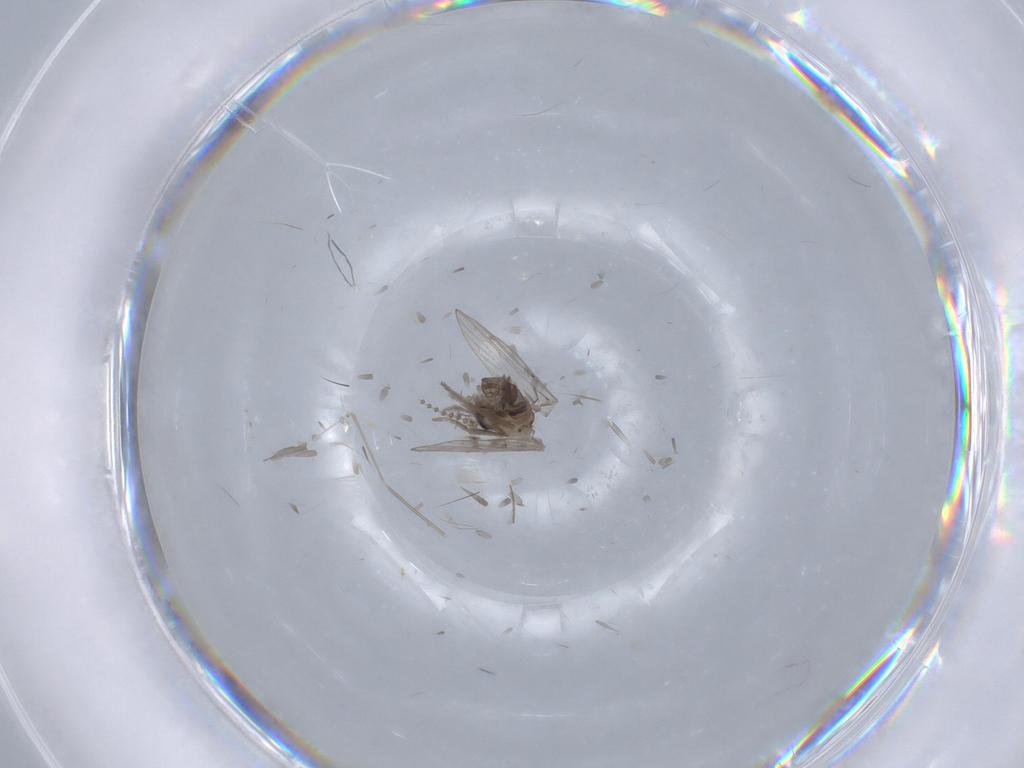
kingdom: Animalia
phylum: Arthropoda
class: Insecta
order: Diptera
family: Psychodidae
